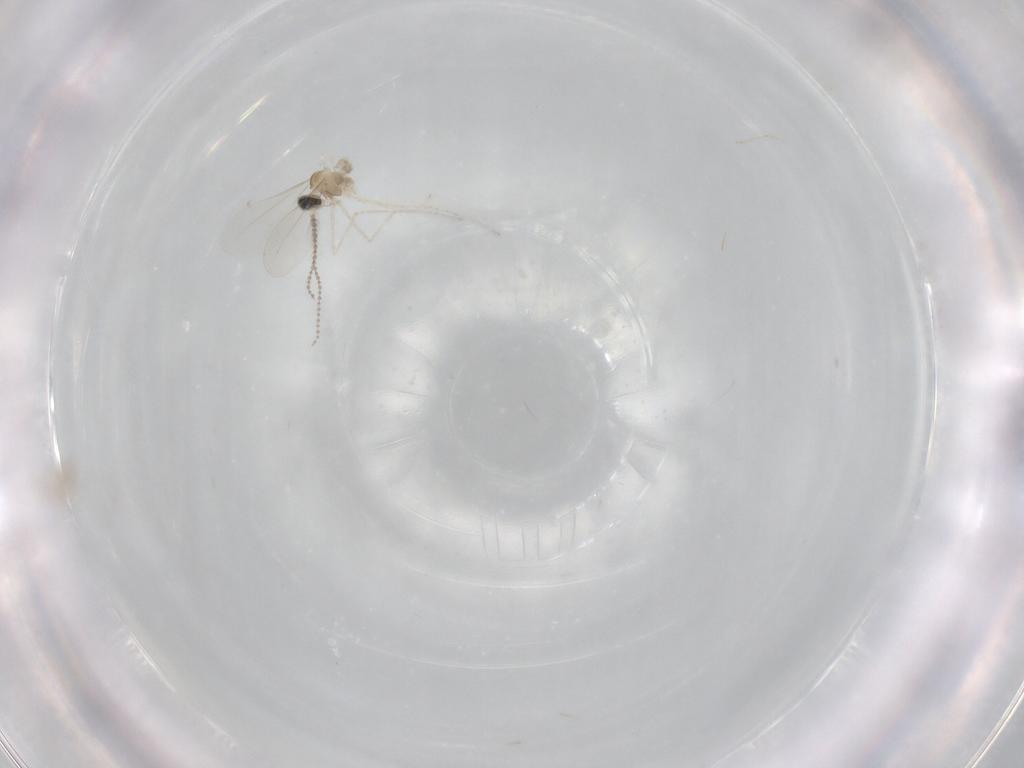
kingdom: Animalia
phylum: Arthropoda
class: Insecta
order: Diptera
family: Cecidomyiidae
